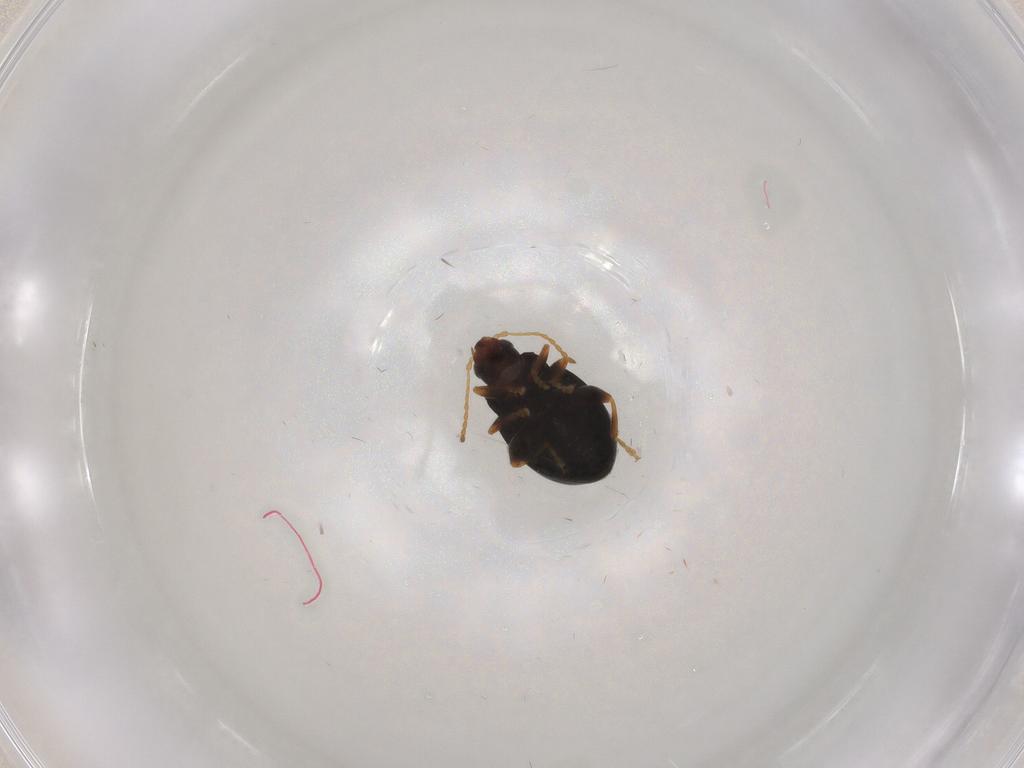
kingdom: Animalia
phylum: Arthropoda
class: Insecta
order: Coleoptera
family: Chrysomelidae
